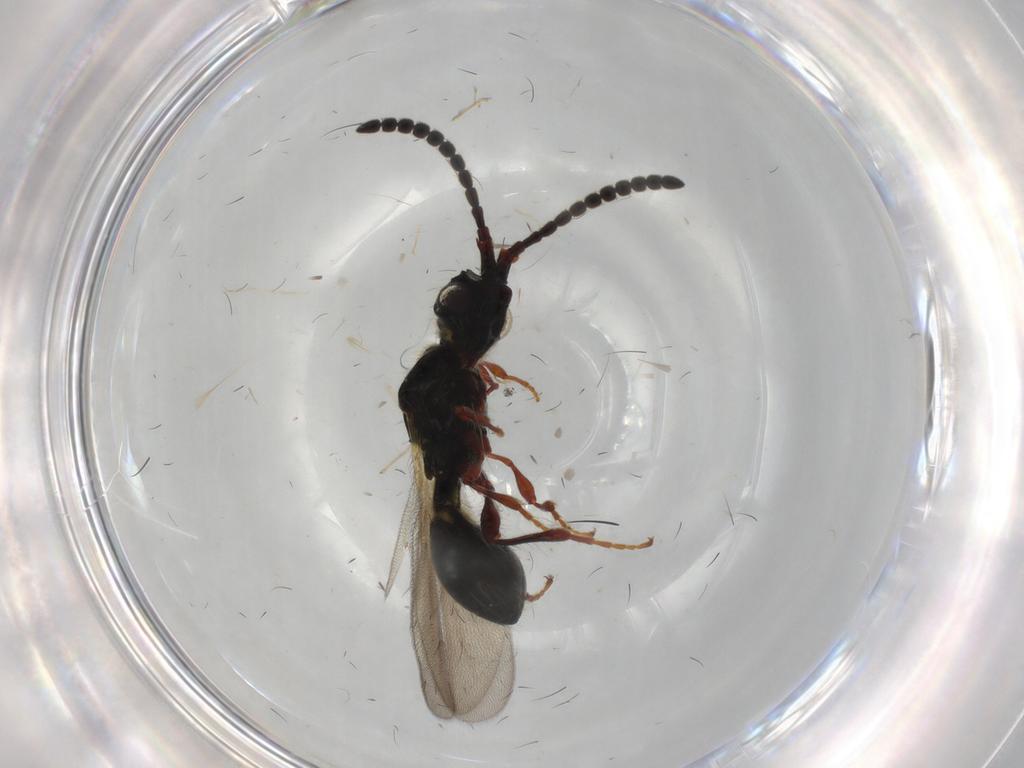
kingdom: Animalia
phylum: Arthropoda
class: Insecta
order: Hymenoptera
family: Diapriidae
